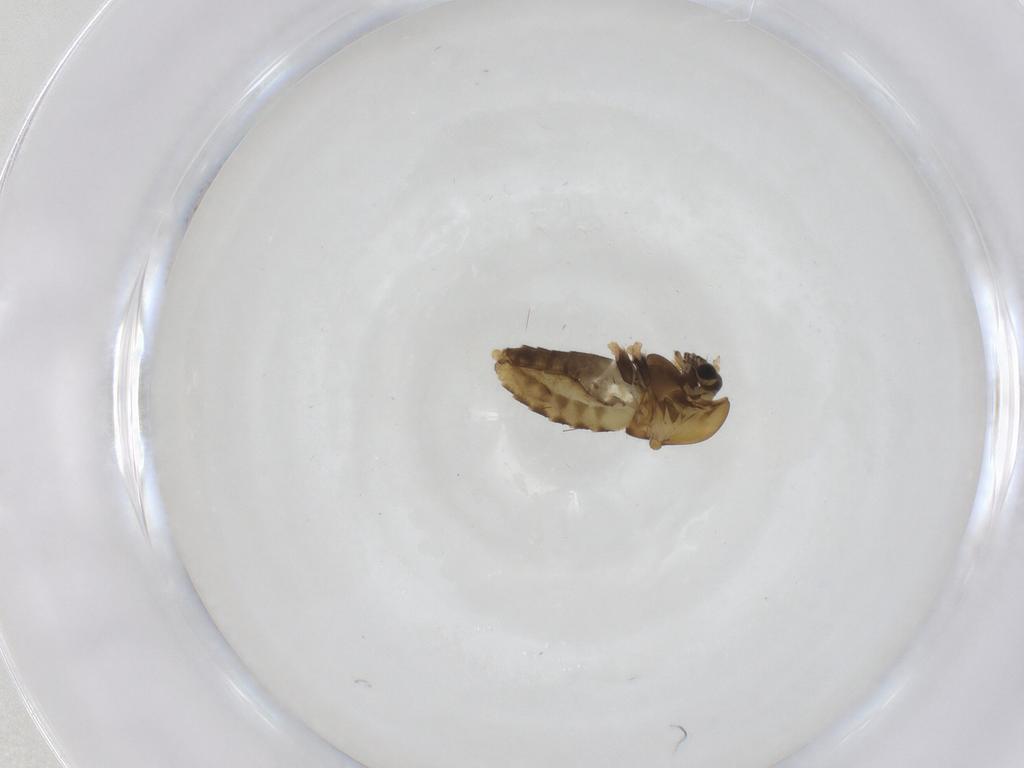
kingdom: Animalia
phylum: Arthropoda
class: Insecta
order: Diptera
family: Chironomidae
